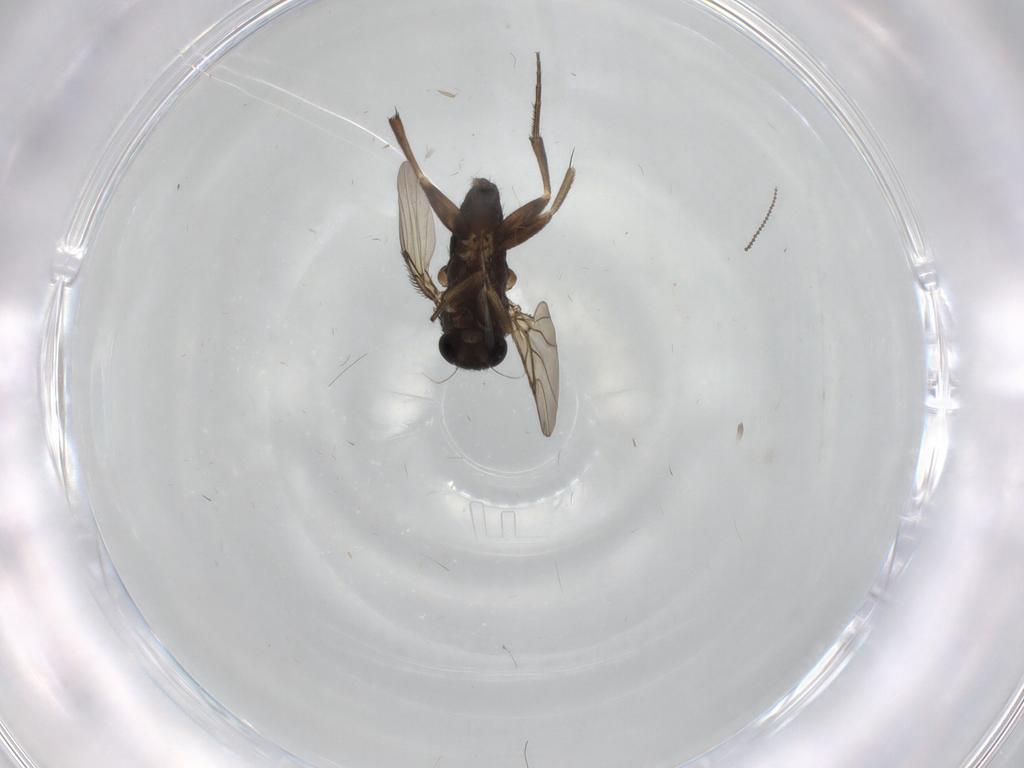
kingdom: Animalia
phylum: Arthropoda
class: Insecta
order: Diptera
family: Phoridae
